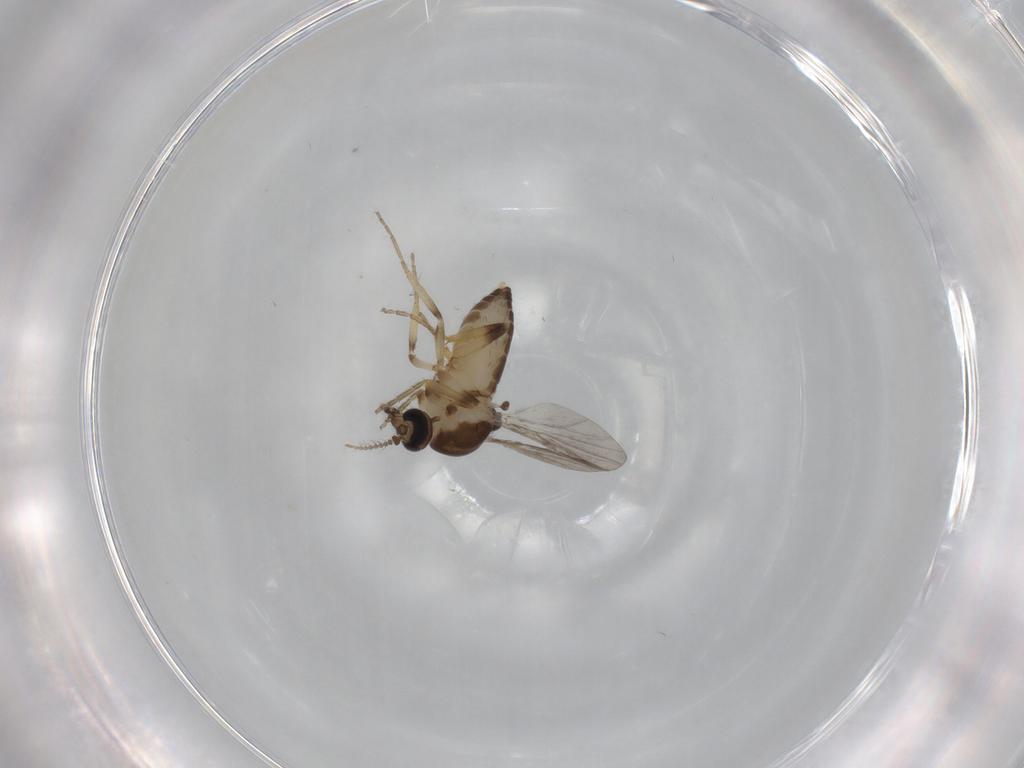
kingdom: Animalia
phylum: Arthropoda
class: Insecta
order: Diptera
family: Ceratopogonidae
